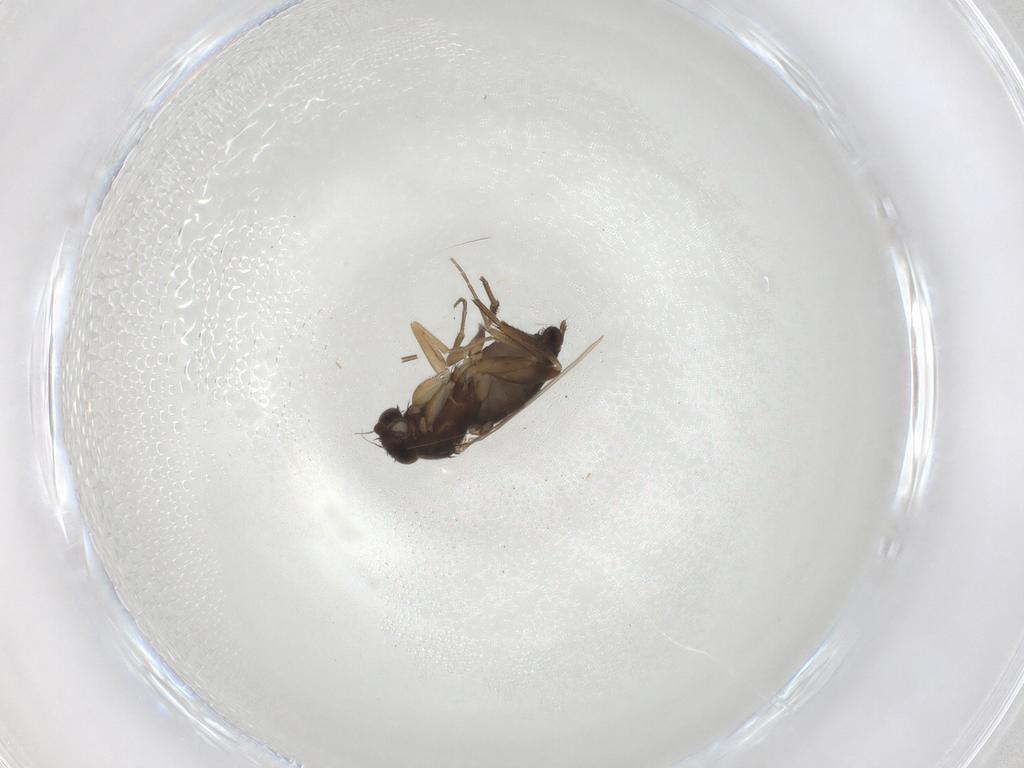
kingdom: Animalia
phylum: Arthropoda
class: Insecta
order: Diptera
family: Phoridae
